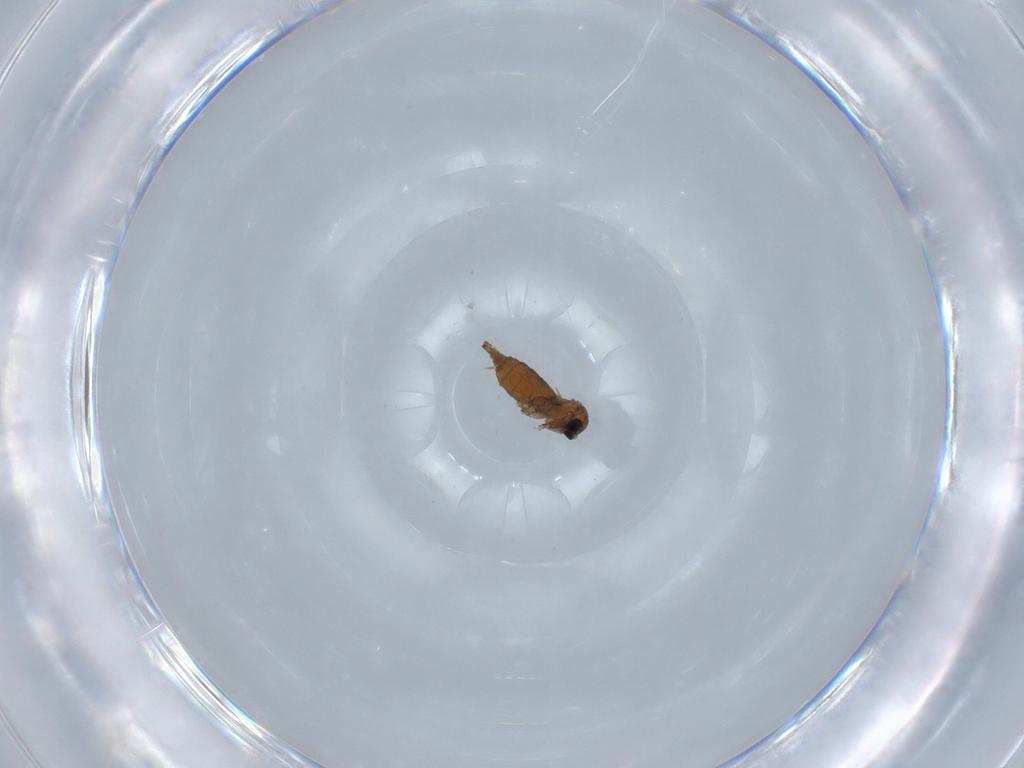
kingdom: Animalia
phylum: Arthropoda
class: Insecta
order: Diptera
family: Sciaridae
